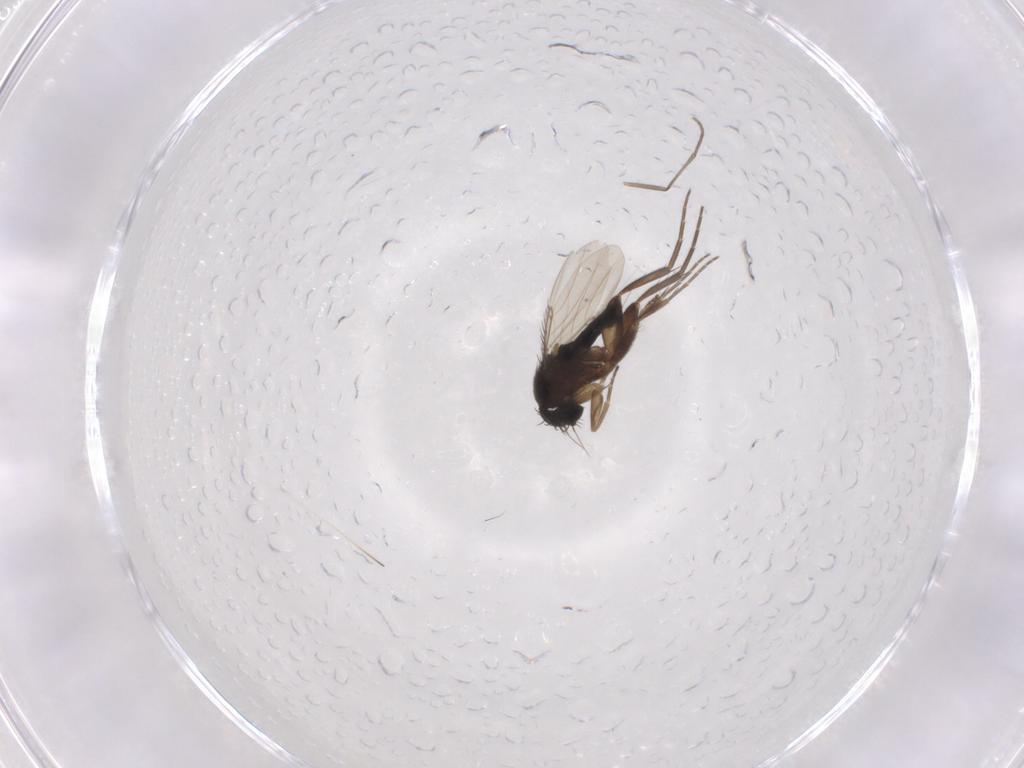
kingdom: Animalia
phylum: Arthropoda
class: Insecta
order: Diptera
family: Sciaridae
